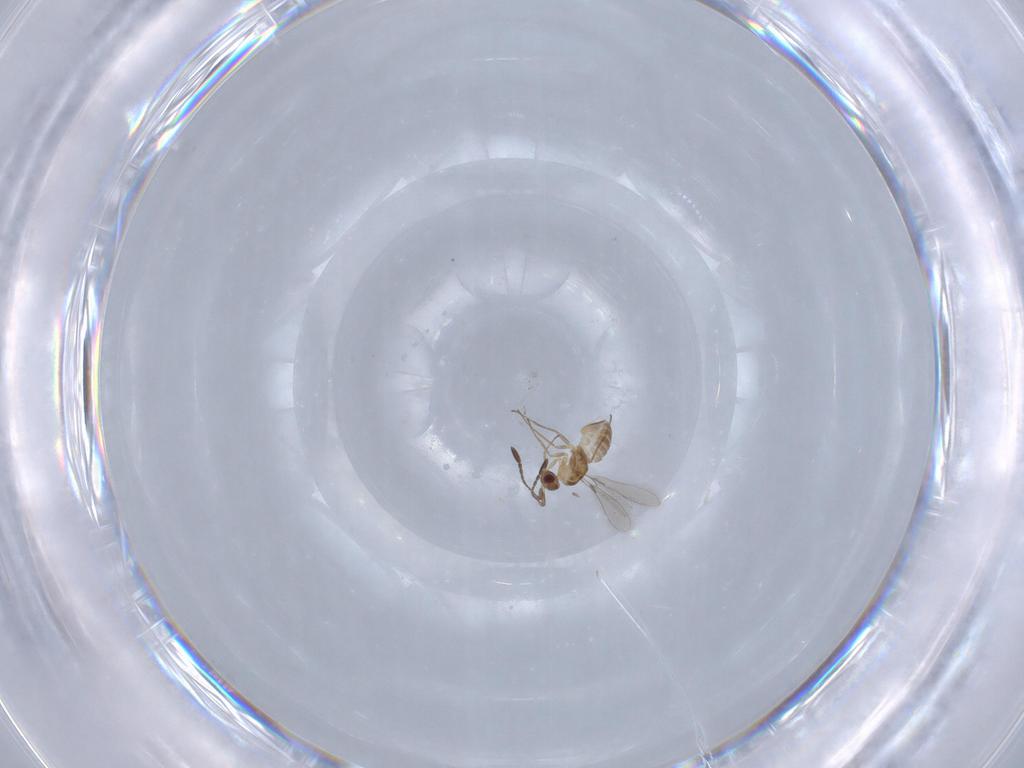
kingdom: Animalia
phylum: Arthropoda
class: Insecta
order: Hymenoptera
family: Mymaridae
